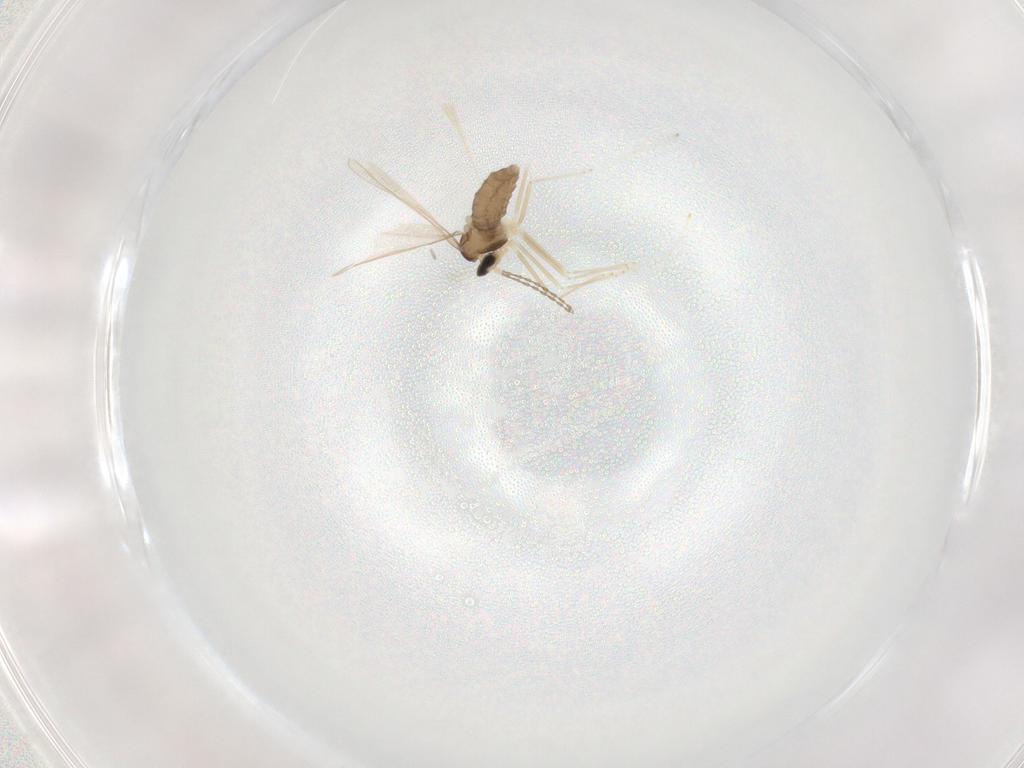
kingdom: Animalia
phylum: Arthropoda
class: Insecta
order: Diptera
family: Cecidomyiidae
